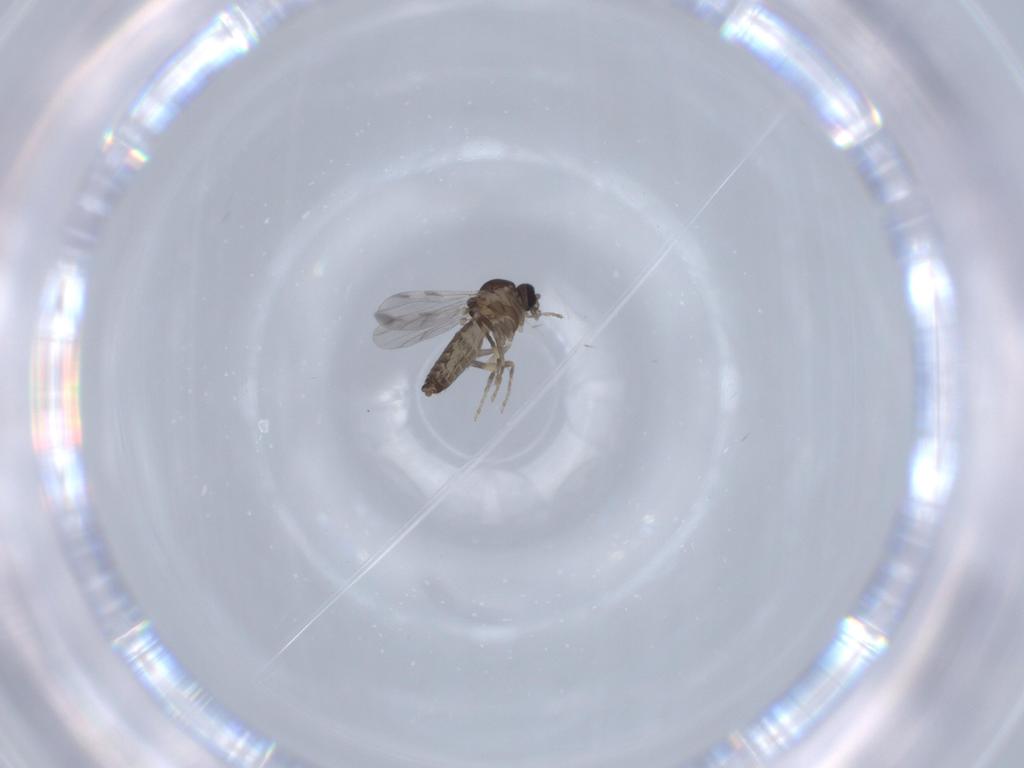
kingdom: Animalia
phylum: Arthropoda
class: Insecta
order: Diptera
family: Ceratopogonidae
